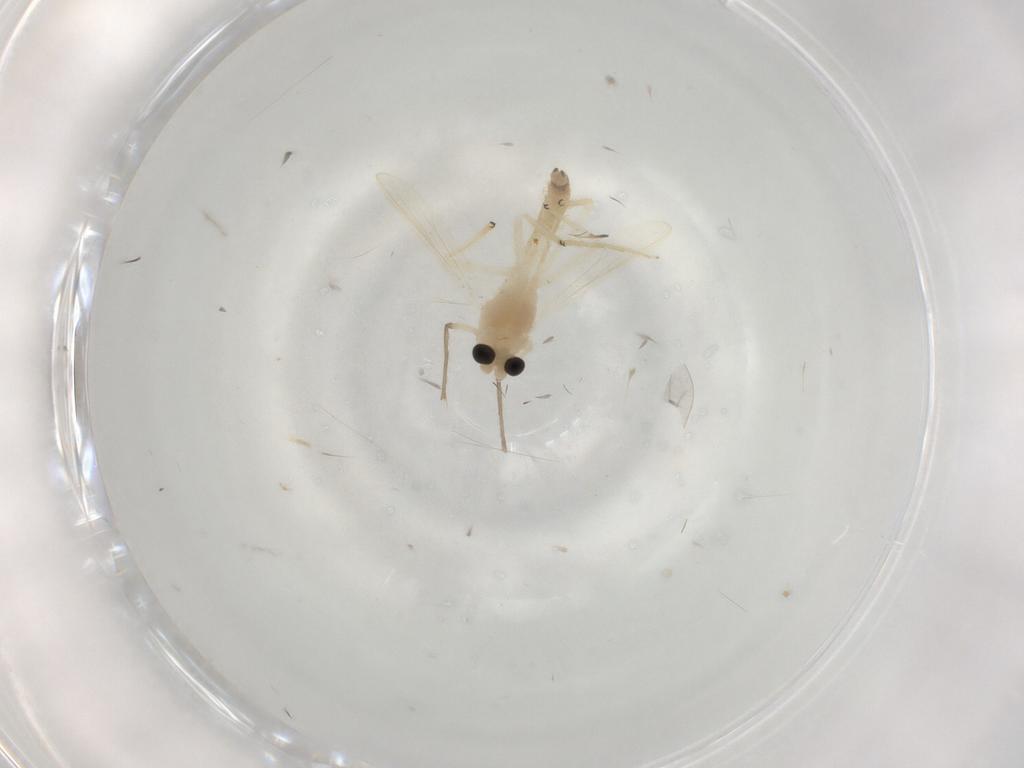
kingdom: Animalia
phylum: Arthropoda
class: Insecta
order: Diptera
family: Chironomidae
